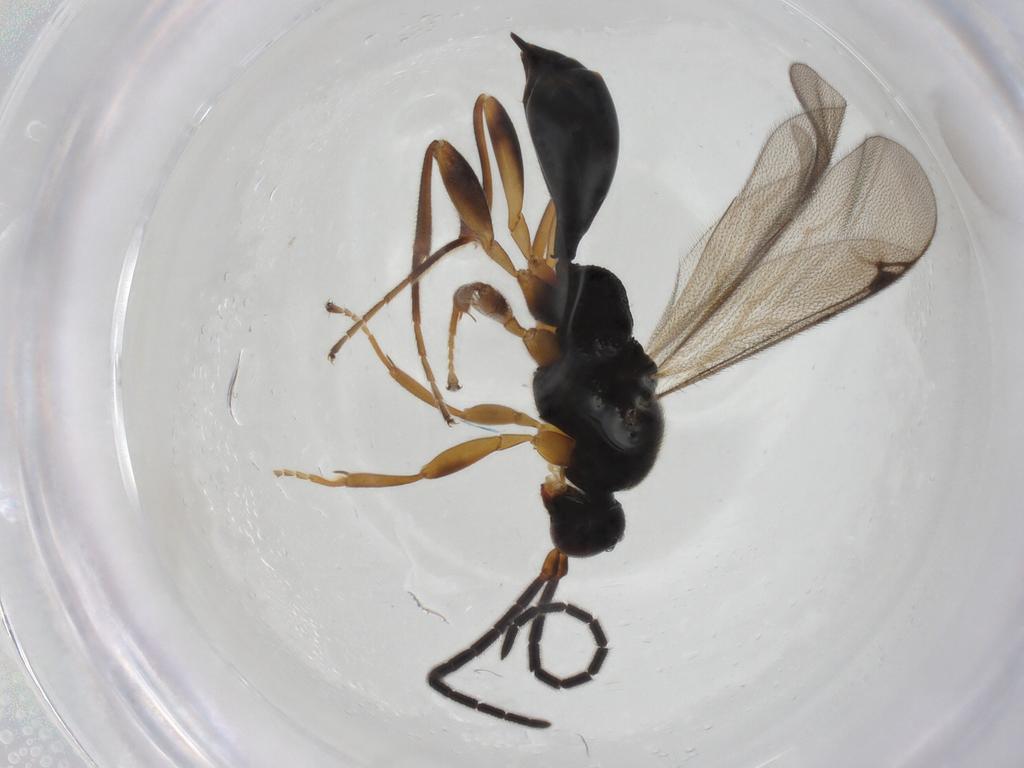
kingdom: Animalia
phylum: Arthropoda
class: Insecta
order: Hymenoptera
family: Proctotrupidae
